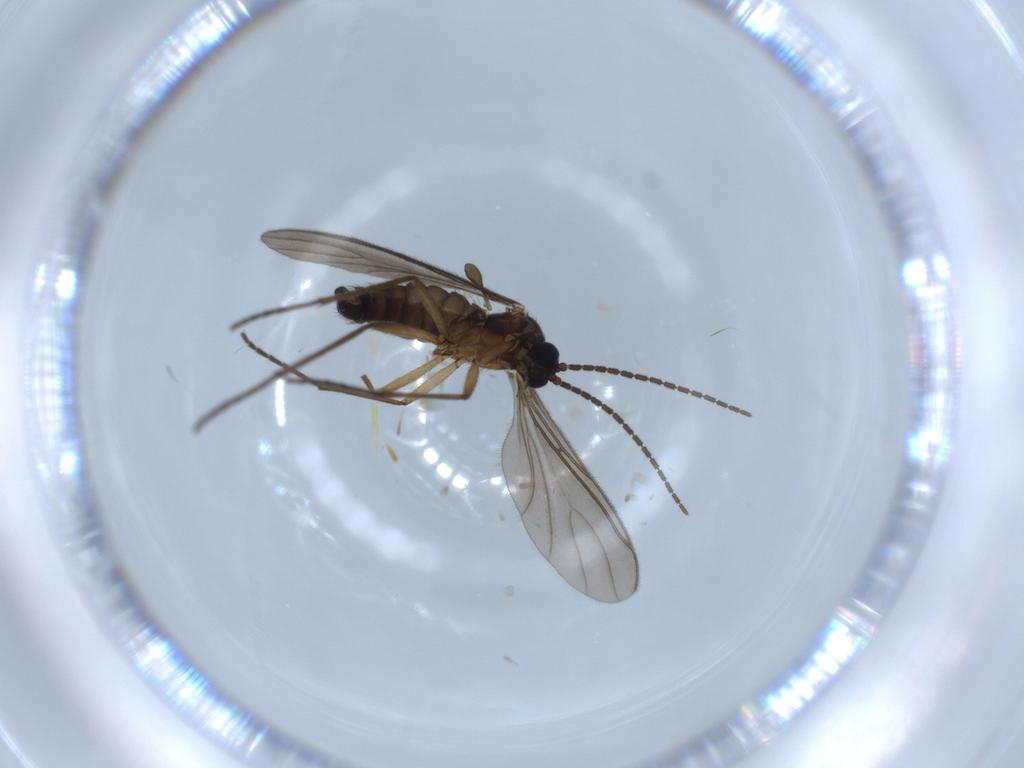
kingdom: Animalia
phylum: Arthropoda
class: Insecta
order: Diptera
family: Sciaridae
